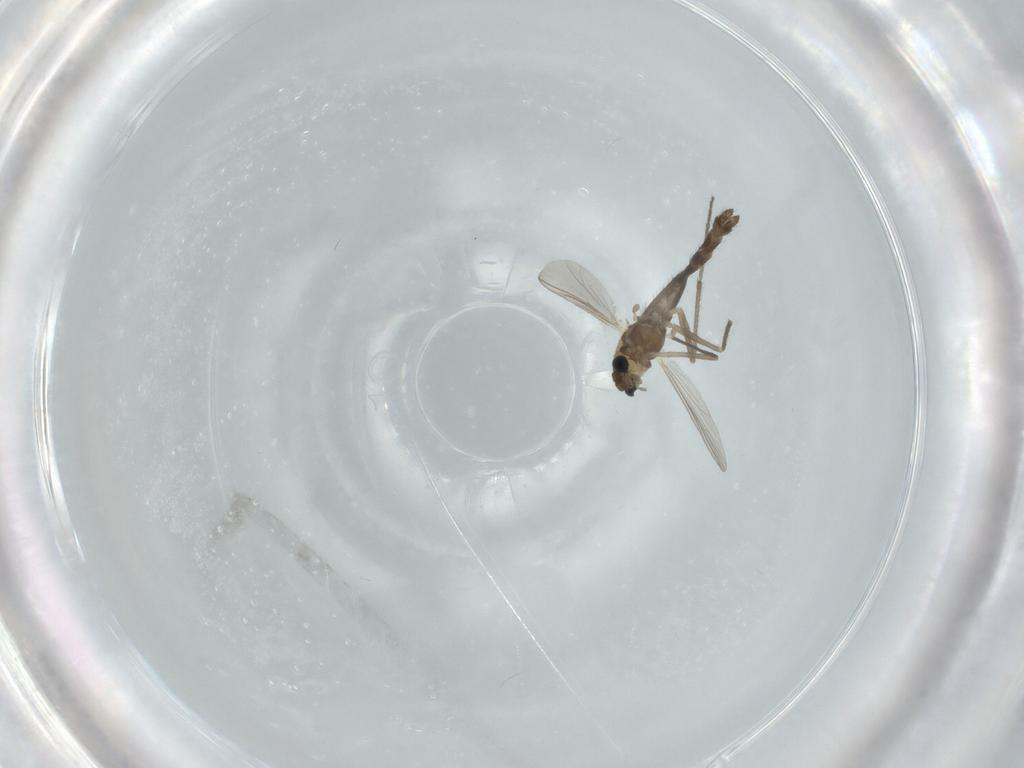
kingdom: Animalia
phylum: Arthropoda
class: Insecta
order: Diptera
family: Chironomidae
